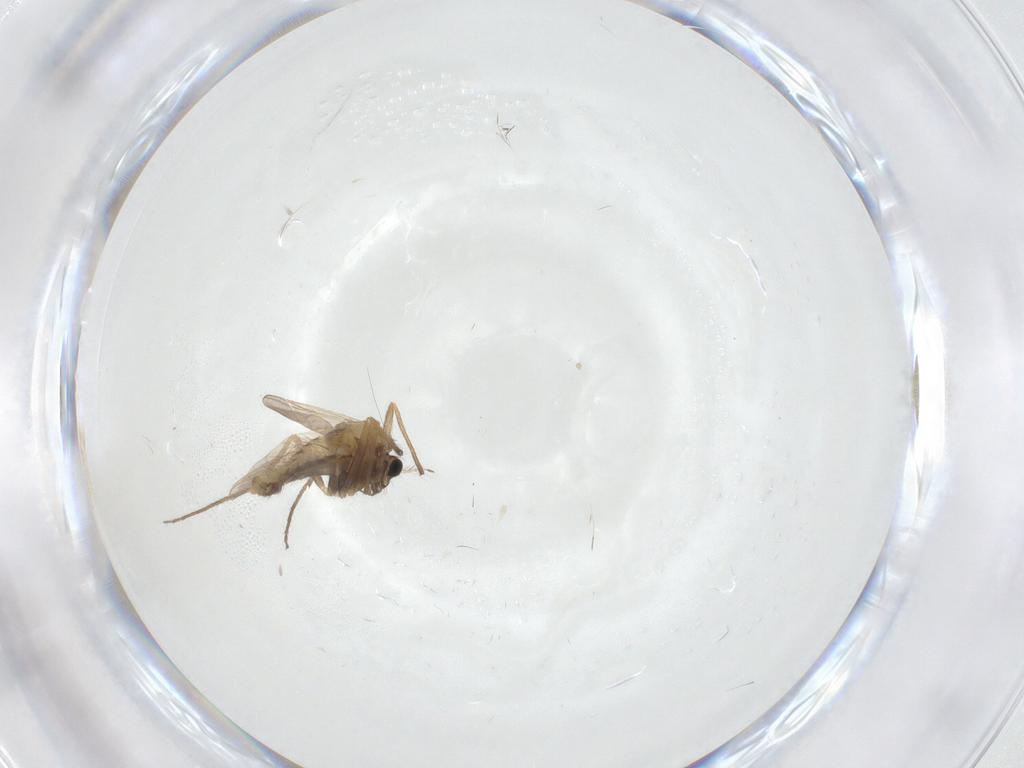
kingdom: Animalia
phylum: Arthropoda
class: Insecta
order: Diptera
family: Chironomidae
